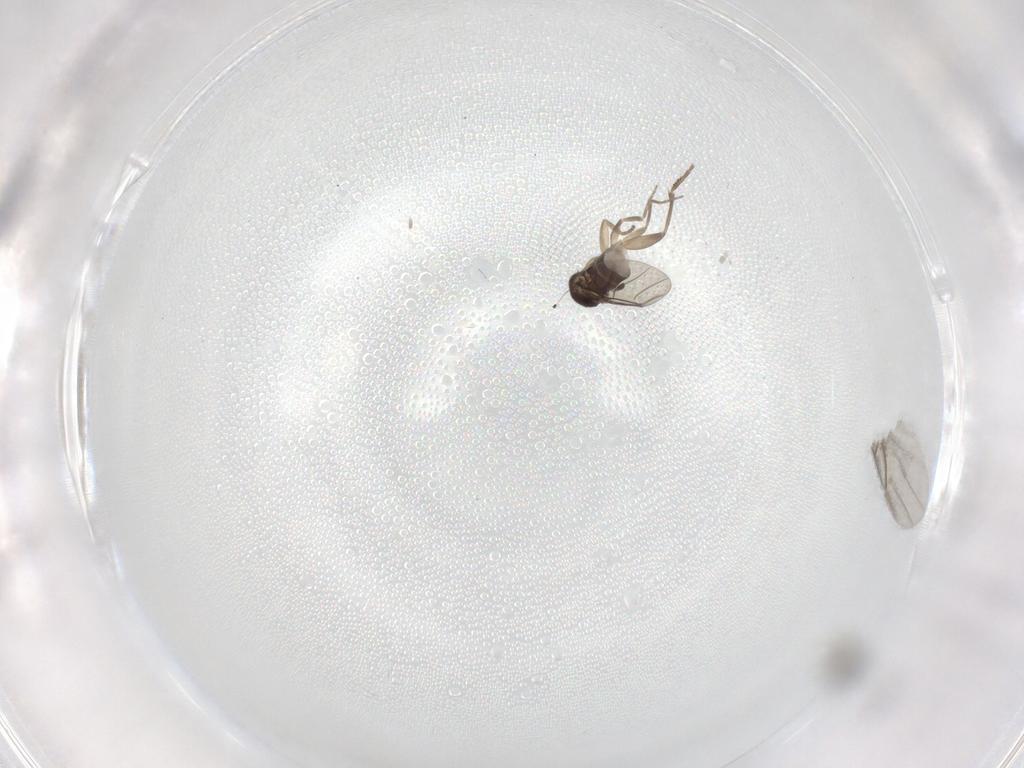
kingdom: Animalia
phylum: Arthropoda
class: Insecta
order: Diptera
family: Phoridae
